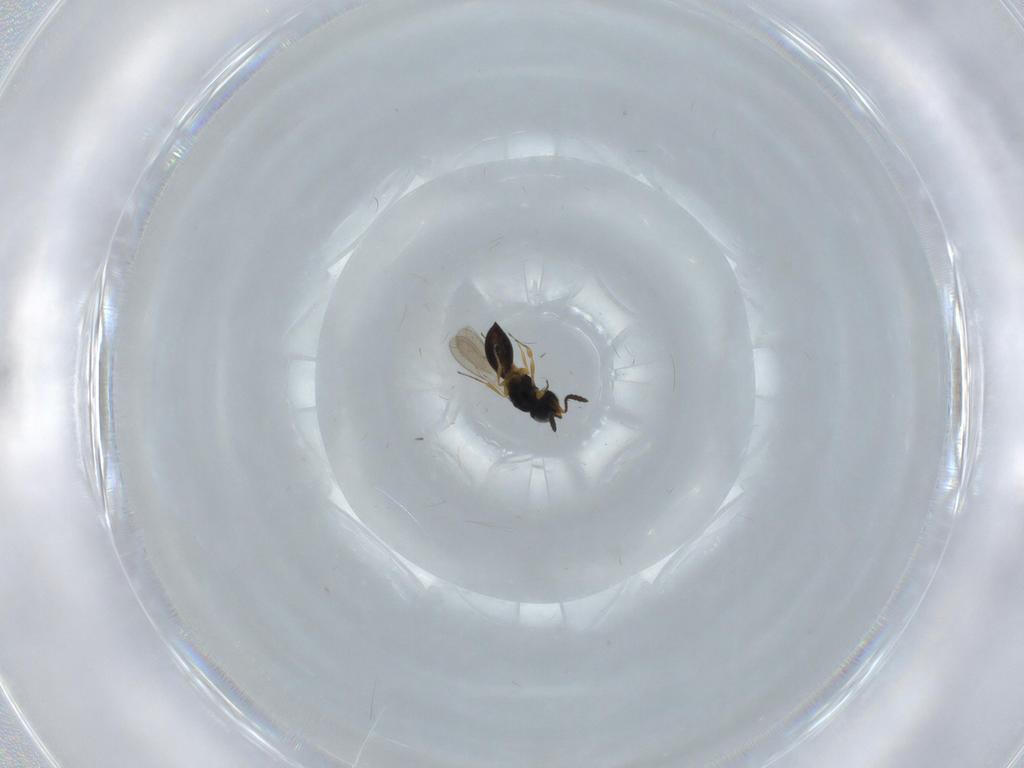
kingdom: Animalia
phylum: Arthropoda
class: Insecta
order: Hymenoptera
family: Scelionidae
